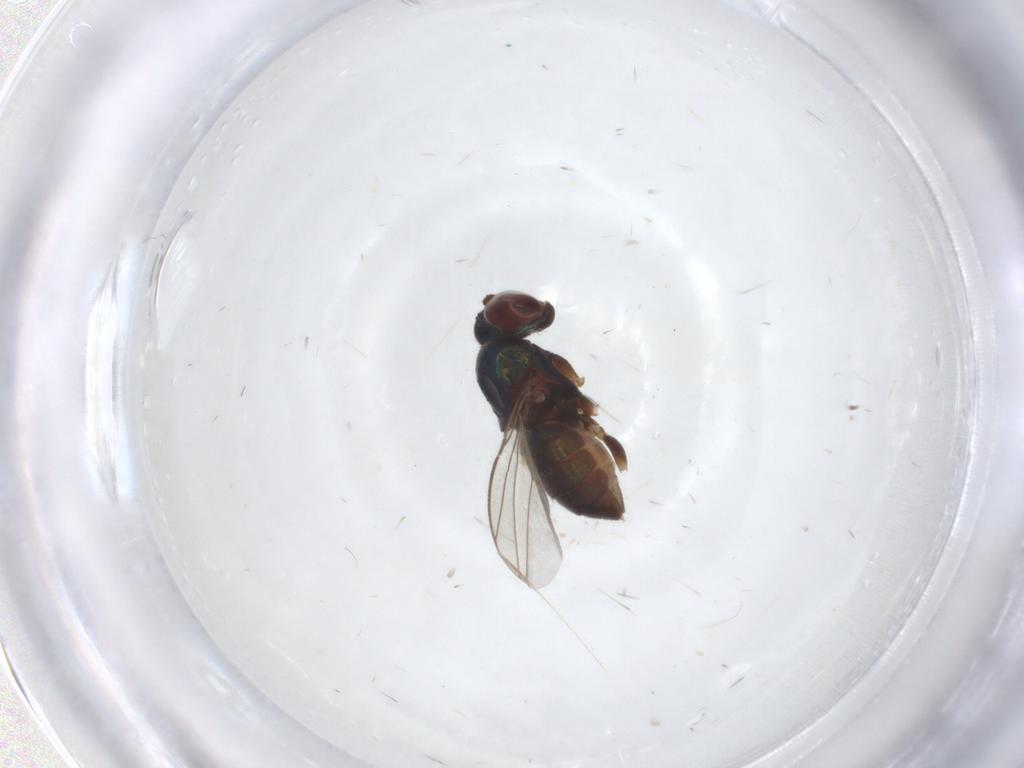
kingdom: Animalia
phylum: Arthropoda
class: Insecta
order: Diptera
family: Dolichopodidae
